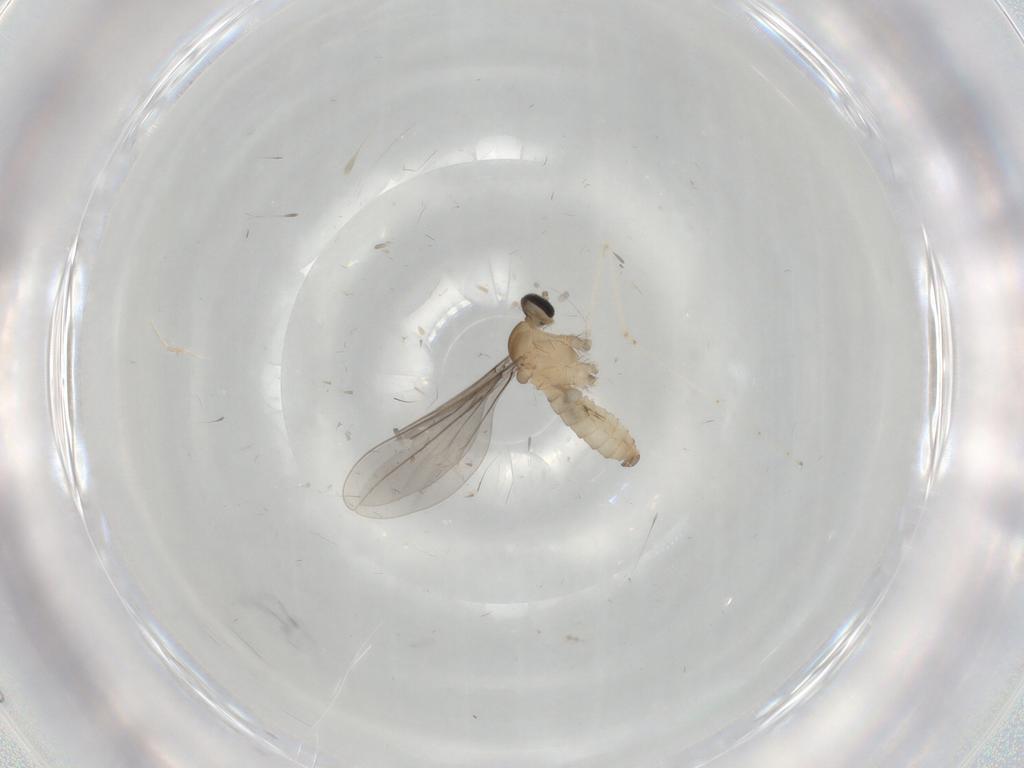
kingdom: Animalia
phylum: Arthropoda
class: Insecta
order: Diptera
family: Cecidomyiidae
